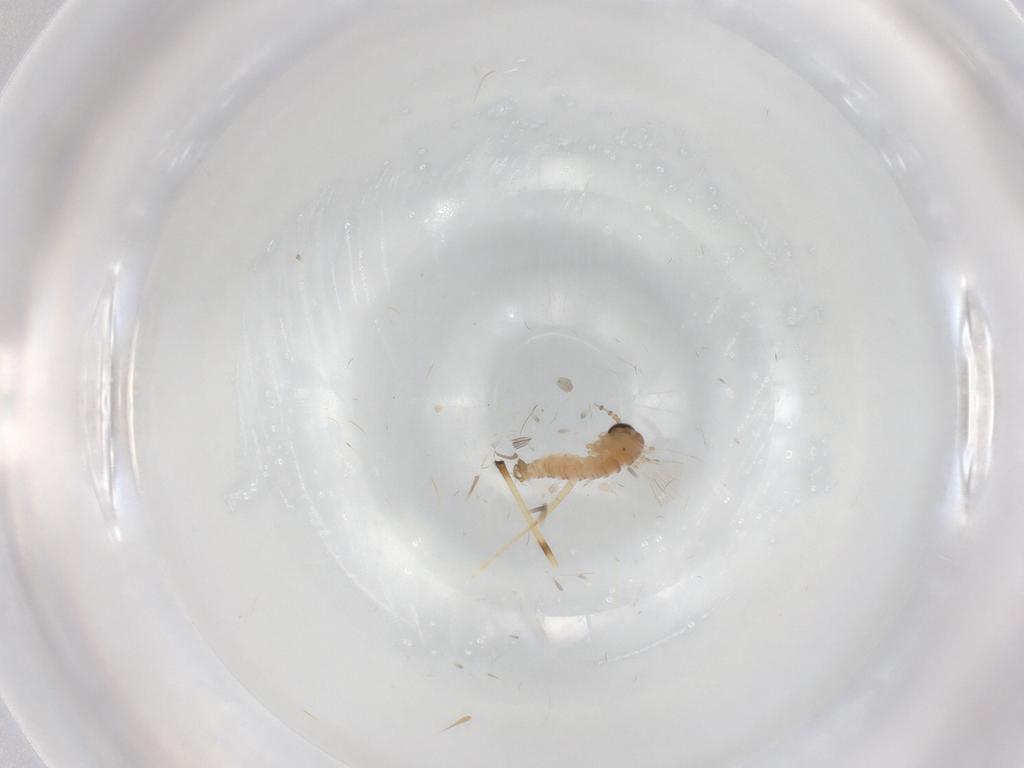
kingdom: Animalia
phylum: Arthropoda
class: Insecta
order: Diptera
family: Psychodidae
